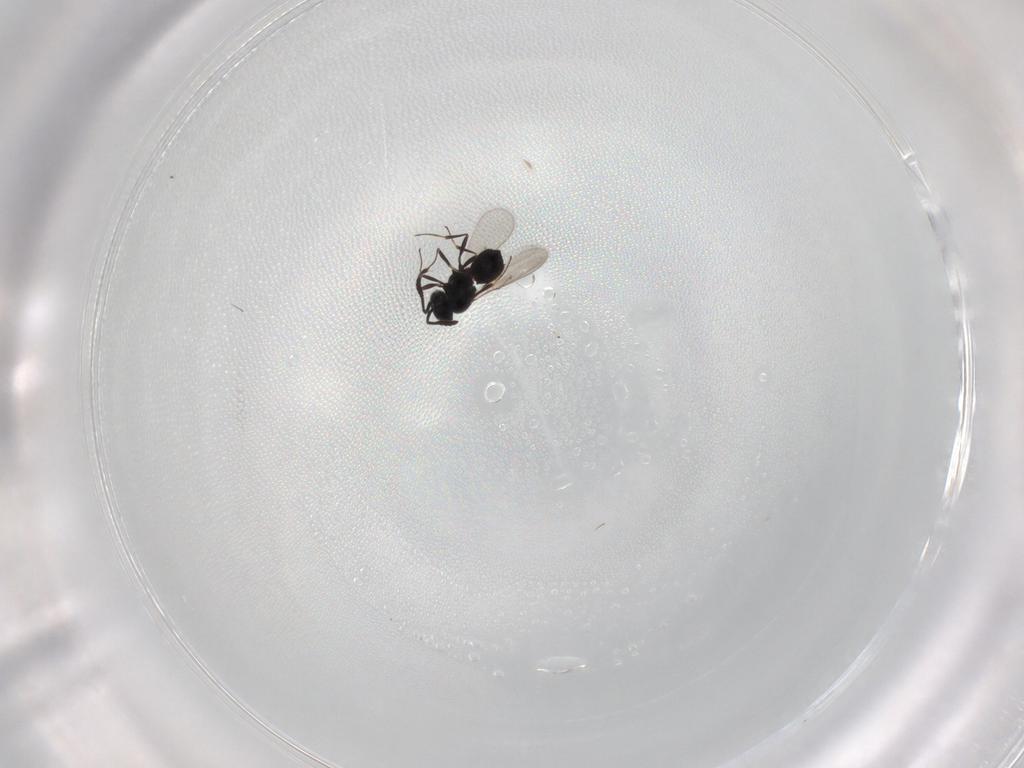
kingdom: Animalia
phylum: Arthropoda
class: Insecta
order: Hymenoptera
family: Scelionidae
